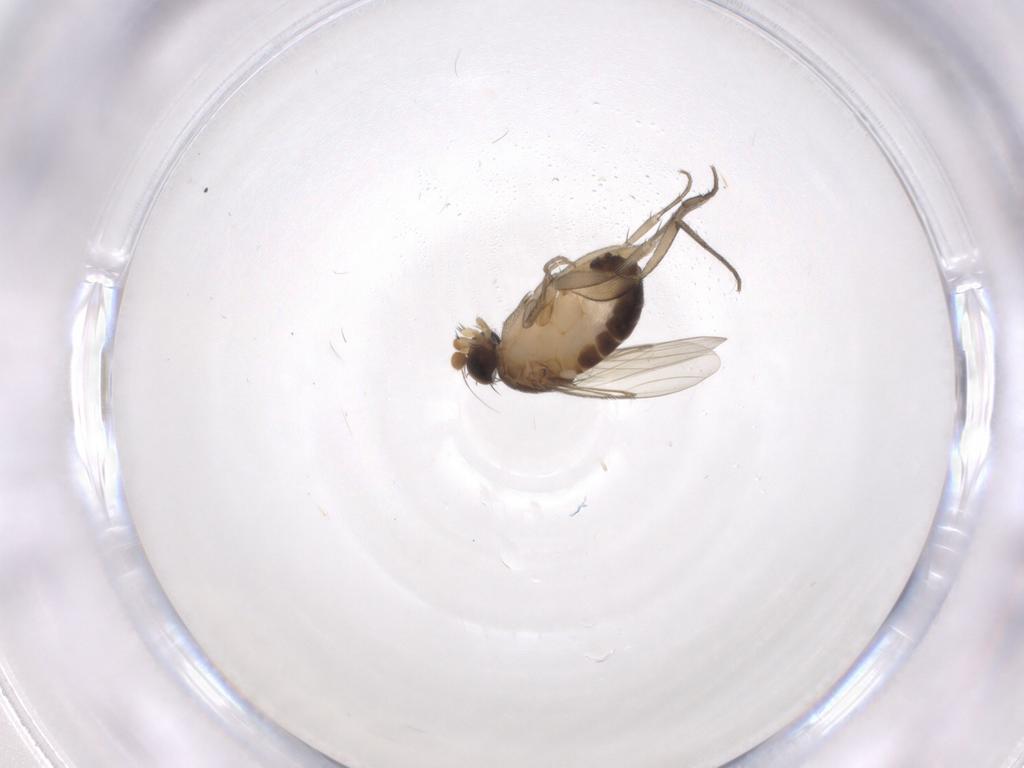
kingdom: Animalia
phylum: Arthropoda
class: Insecta
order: Diptera
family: Phoridae
